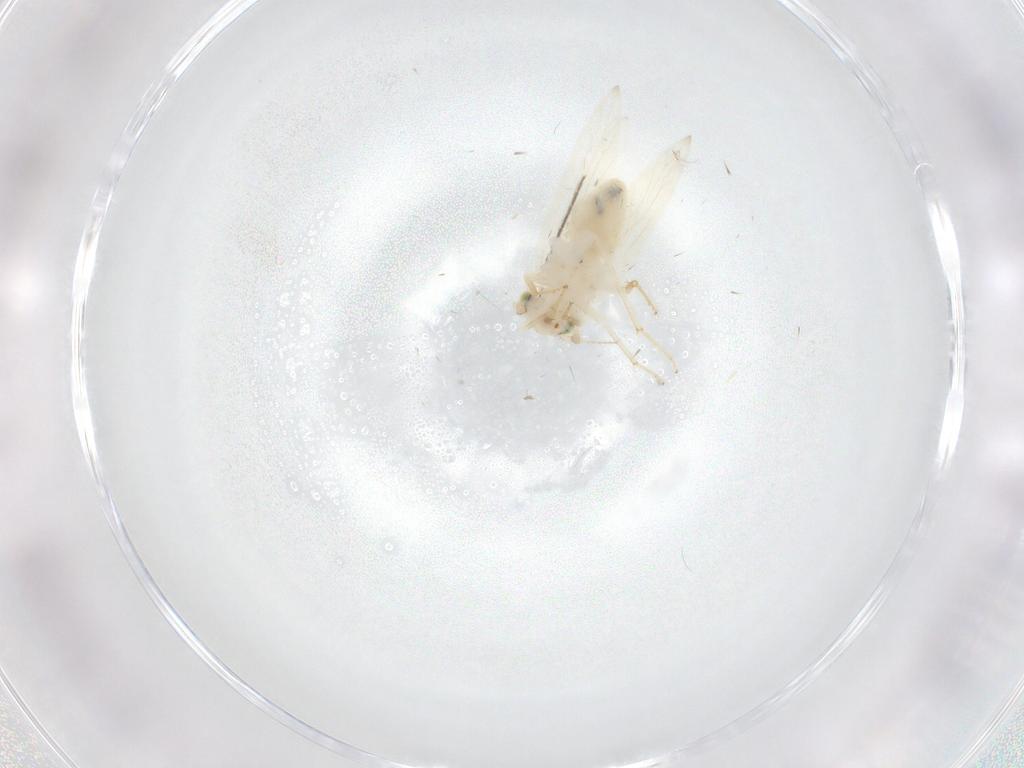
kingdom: Animalia
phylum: Arthropoda
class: Insecta
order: Psocodea
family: Lepidopsocidae
